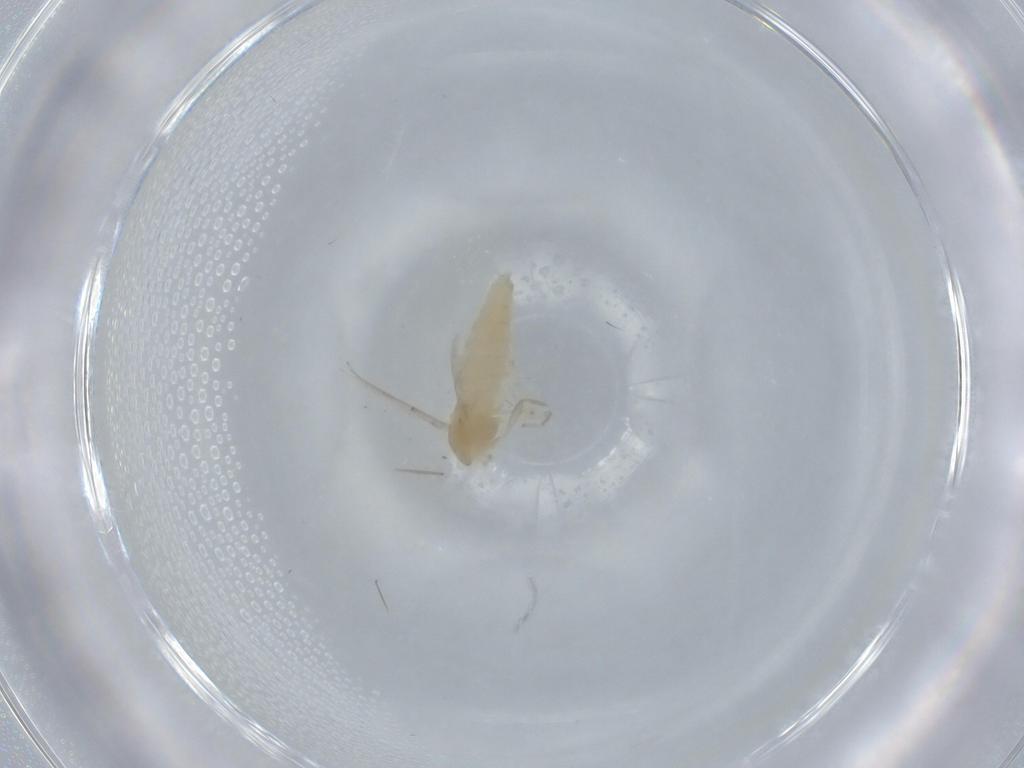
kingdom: Animalia
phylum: Arthropoda
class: Insecta
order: Diptera
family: Chironomidae
